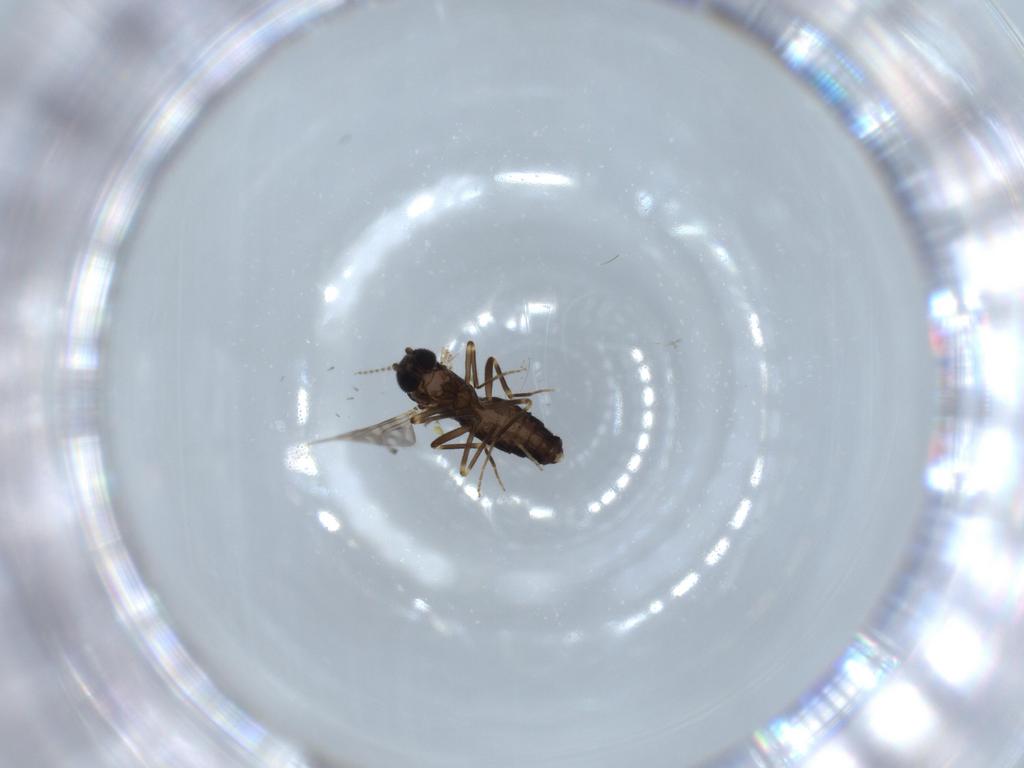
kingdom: Animalia
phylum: Arthropoda
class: Insecta
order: Diptera
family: Ceratopogonidae
